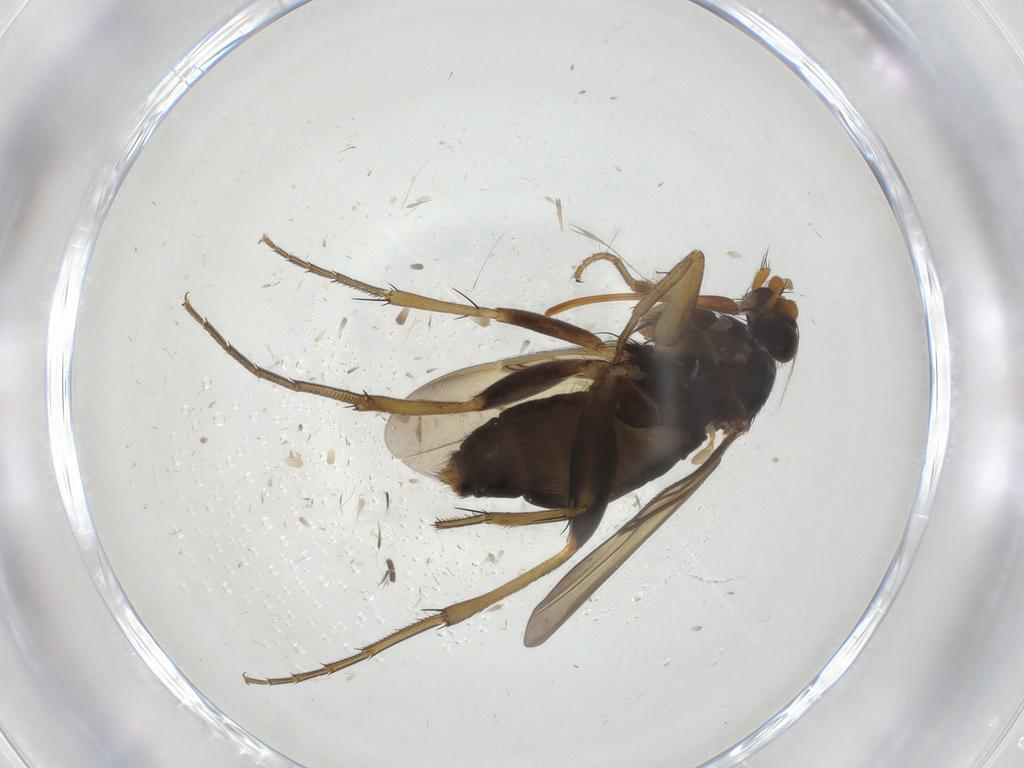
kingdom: Animalia
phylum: Arthropoda
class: Insecta
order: Diptera
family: Phoridae
